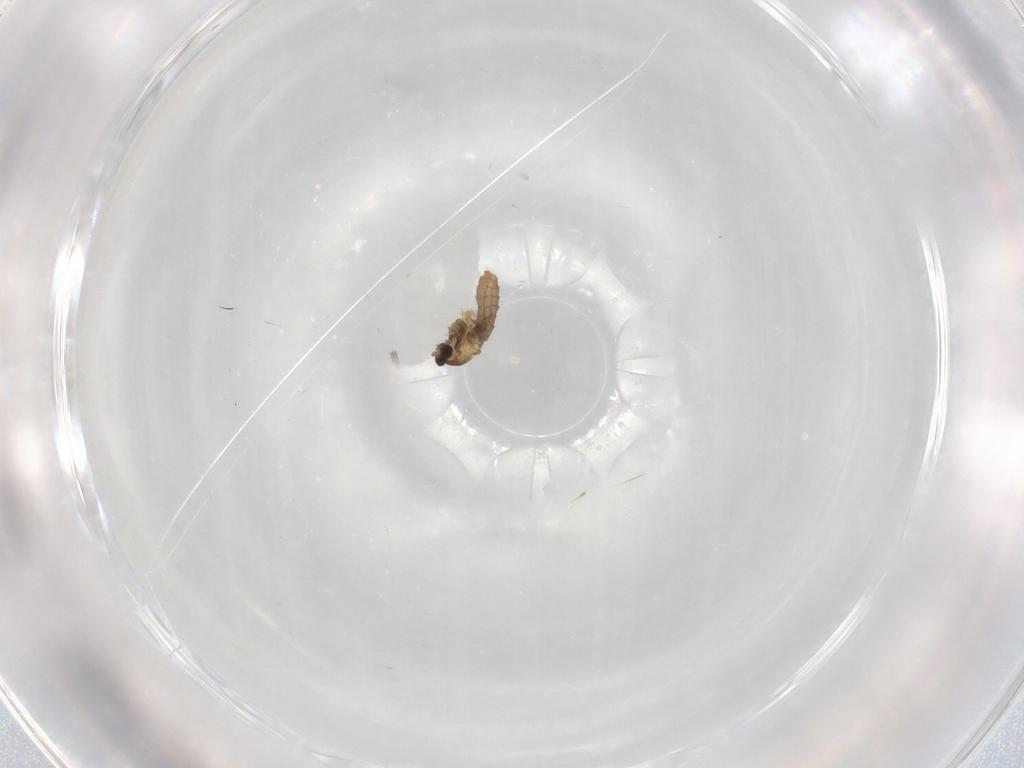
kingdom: Animalia
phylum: Arthropoda
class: Insecta
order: Diptera
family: Cecidomyiidae
